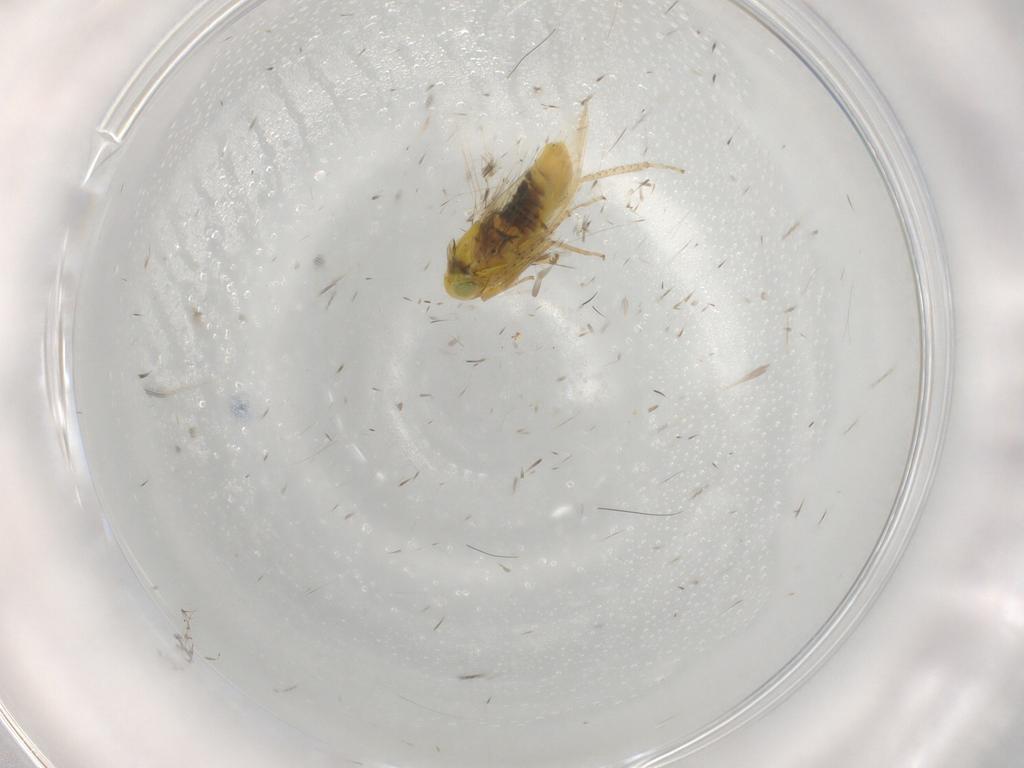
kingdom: Animalia
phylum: Arthropoda
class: Insecta
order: Hemiptera
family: Cicadellidae
